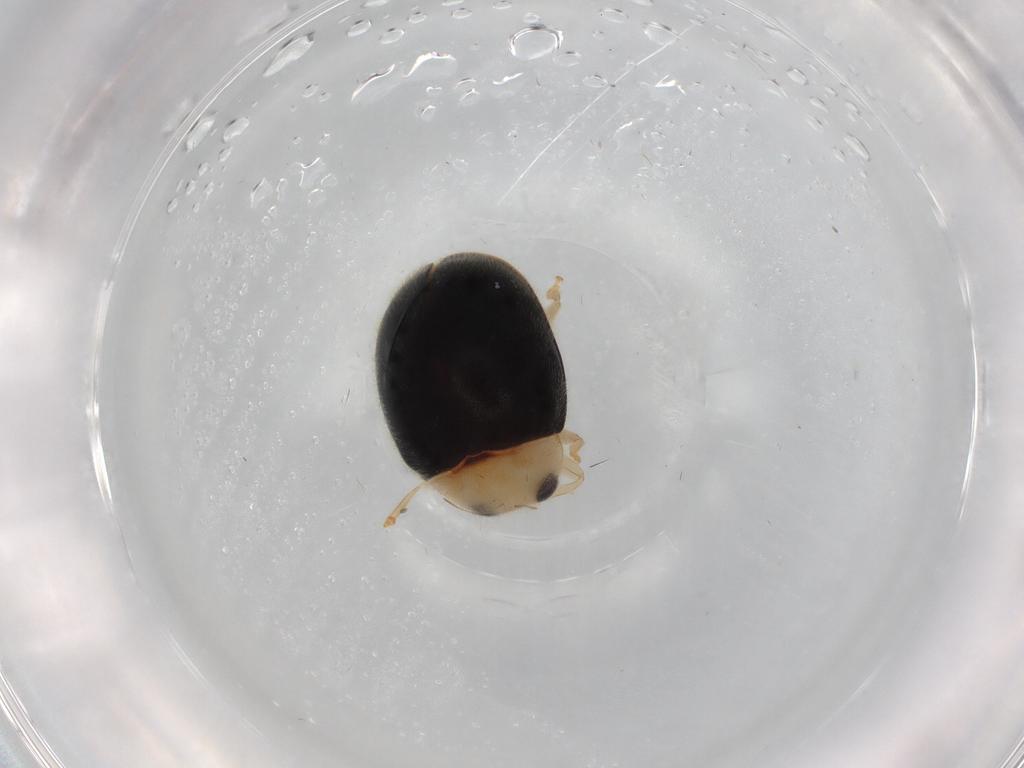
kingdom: Animalia
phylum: Arthropoda
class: Insecta
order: Coleoptera
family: Coccinellidae
